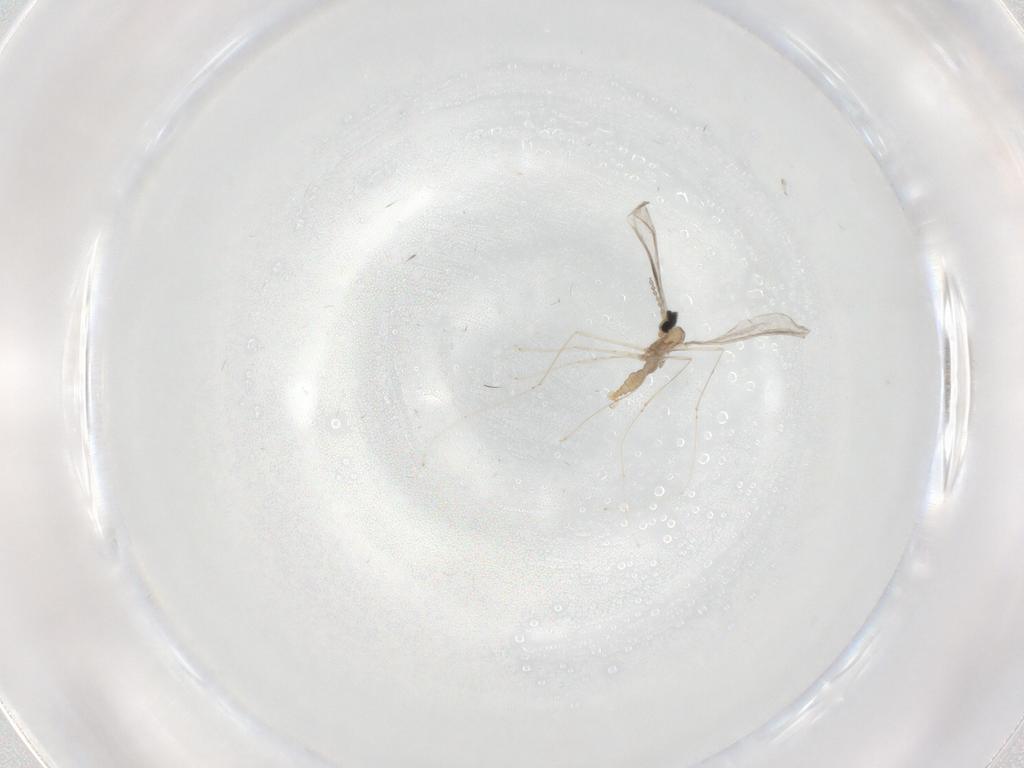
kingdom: Animalia
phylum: Arthropoda
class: Insecta
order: Diptera
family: Cecidomyiidae
